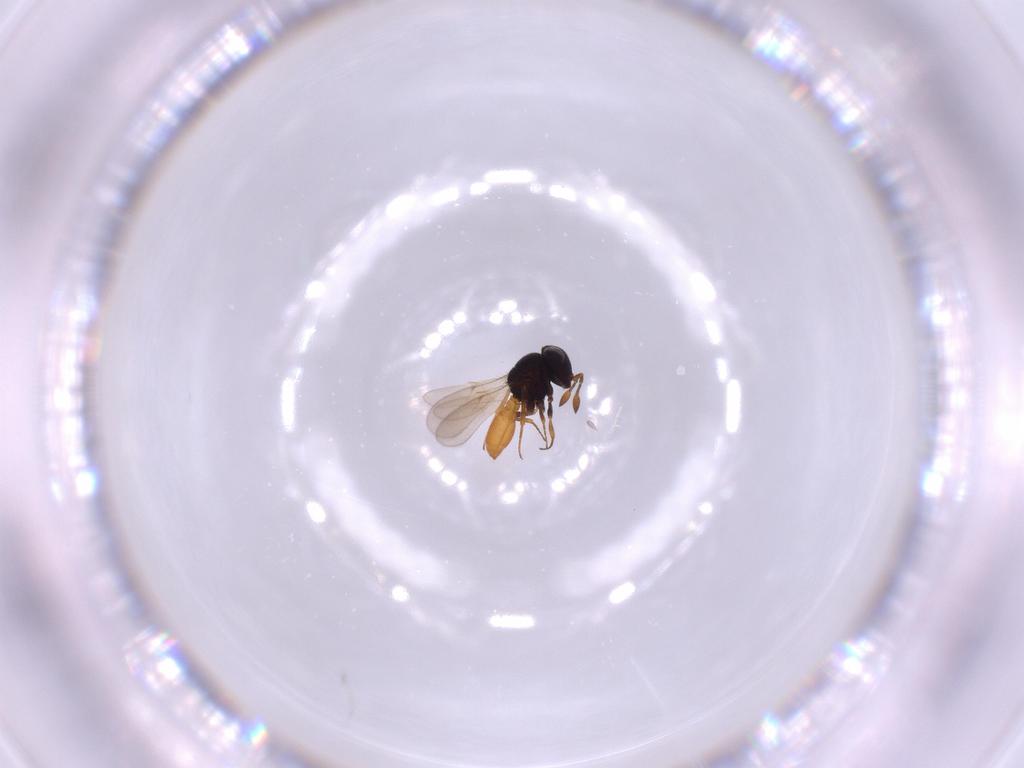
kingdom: Animalia
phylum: Arthropoda
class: Insecta
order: Hymenoptera
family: Scelionidae
